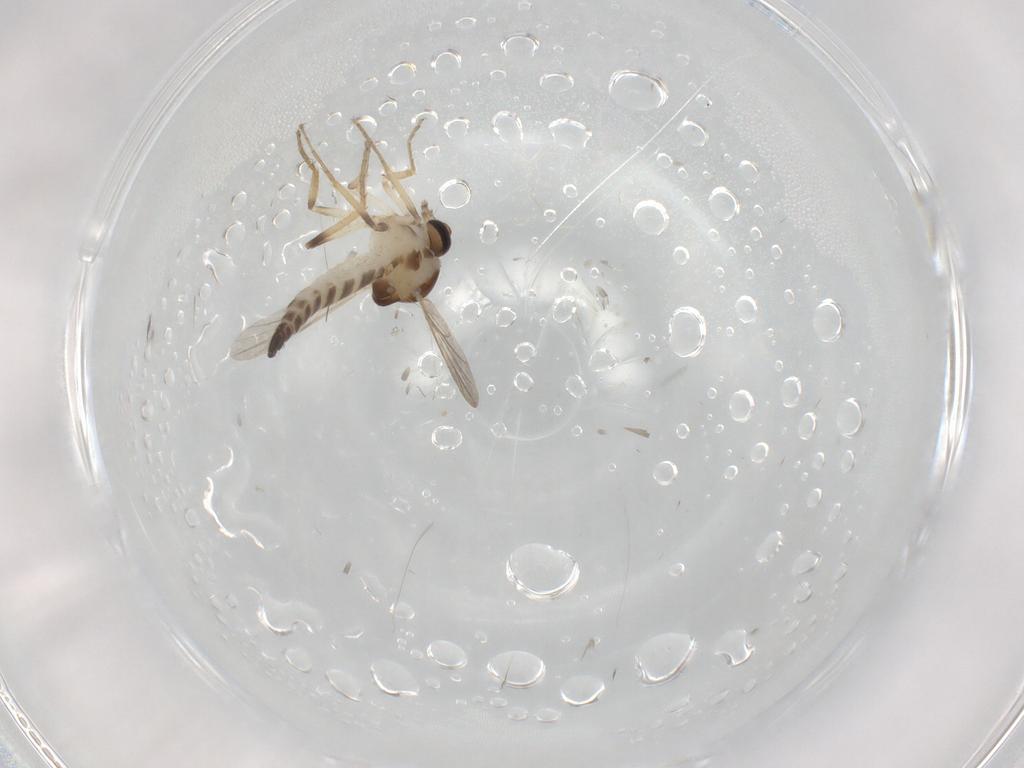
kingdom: Animalia
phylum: Arthropoda
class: Insecta
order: Diptera
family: Ceratopogonidae
